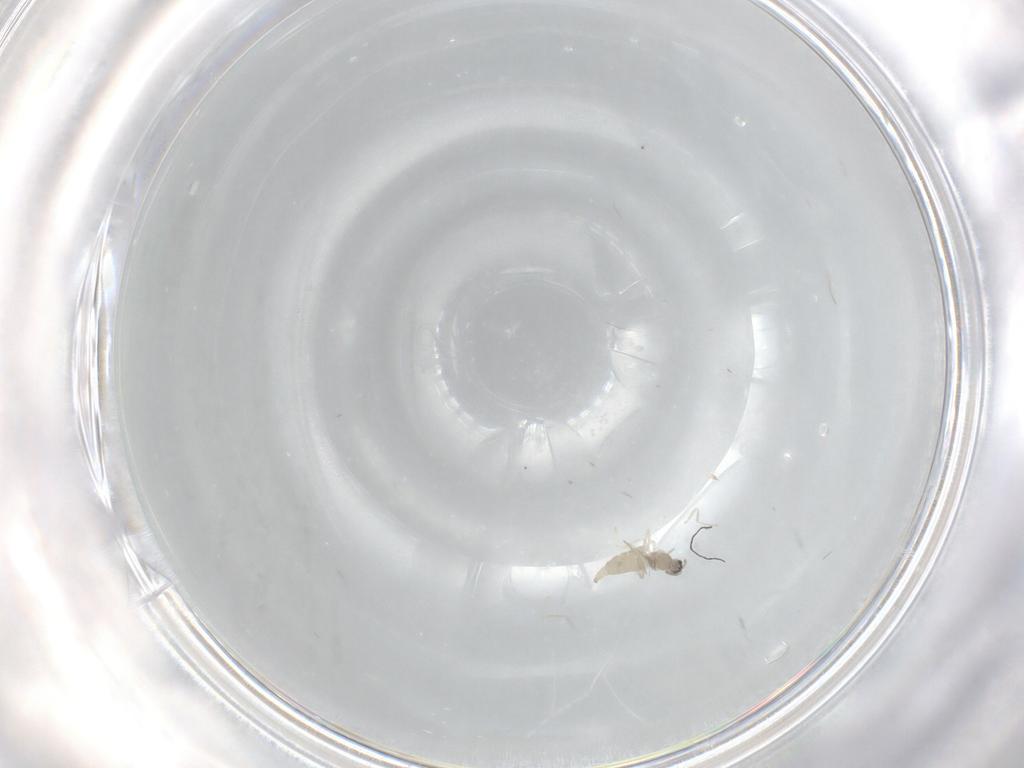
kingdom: Animalia
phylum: Arthropoda
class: Insecta
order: Diptera
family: Cecidomyiidae
